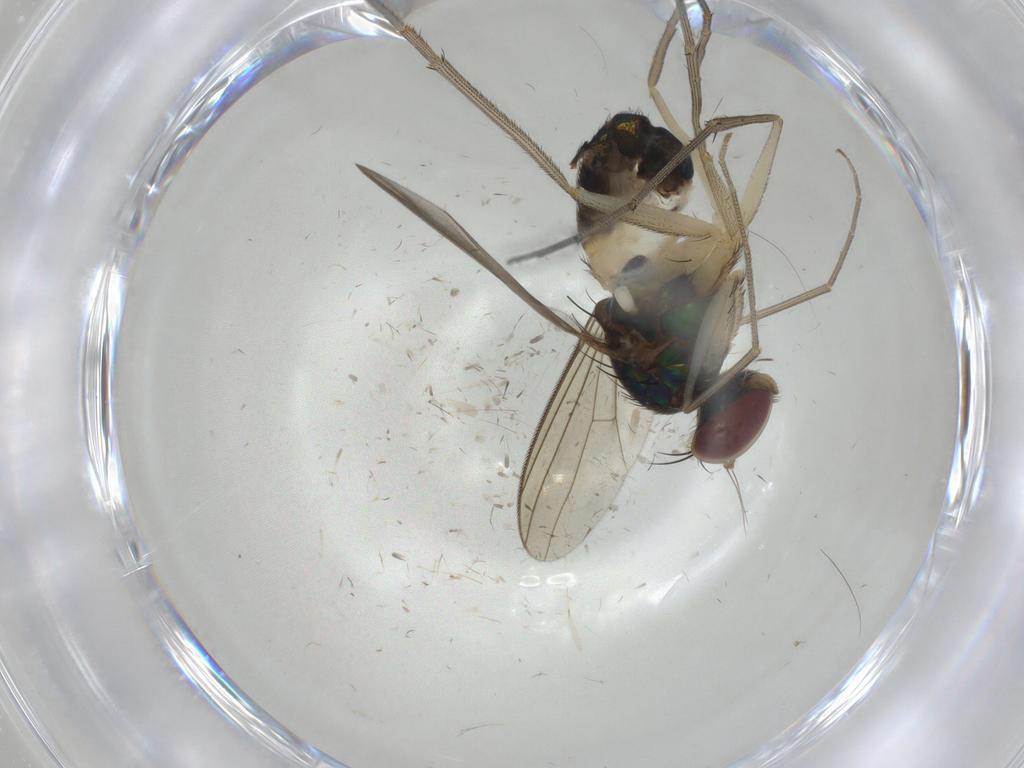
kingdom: Animalia
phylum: Arthropoda
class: Insecta
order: Diptera
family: Dolichopodidae
